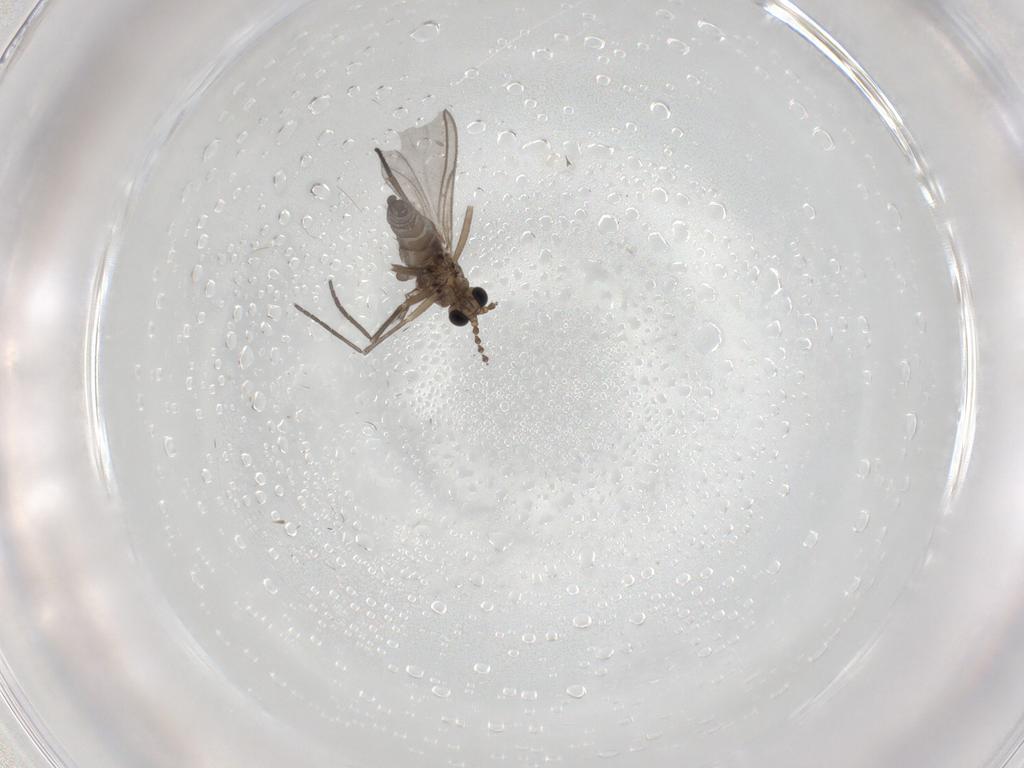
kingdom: Animalia
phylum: Arthropoda
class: Insecta
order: Diptera
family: Sciaridae
